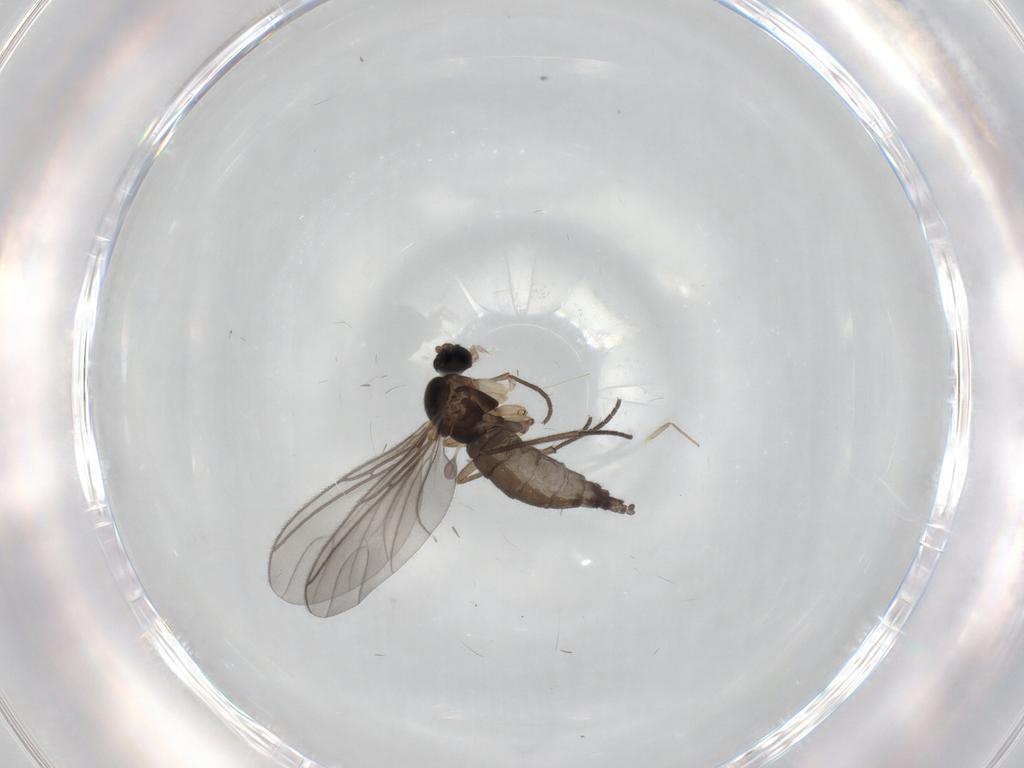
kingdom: Animalia
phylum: Arthropoda
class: Insecta
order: Diptera
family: Sciaridae
